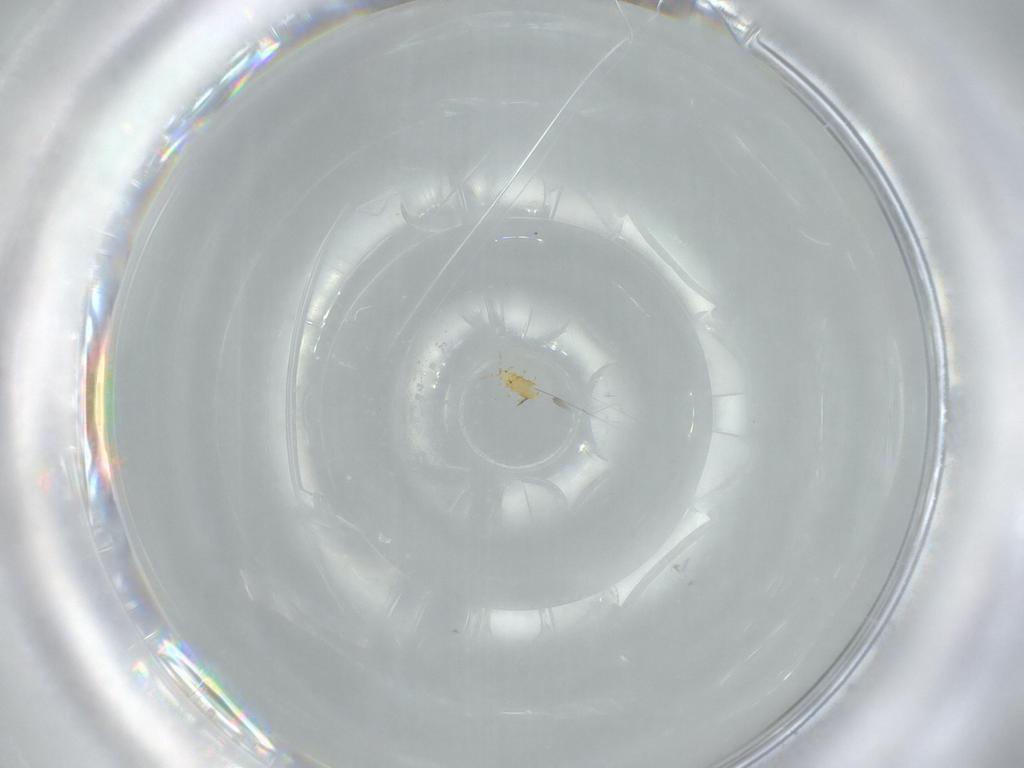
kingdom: Animalia
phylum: Arthropoda
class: Insecta
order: Thysanoptera
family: Thripidae
